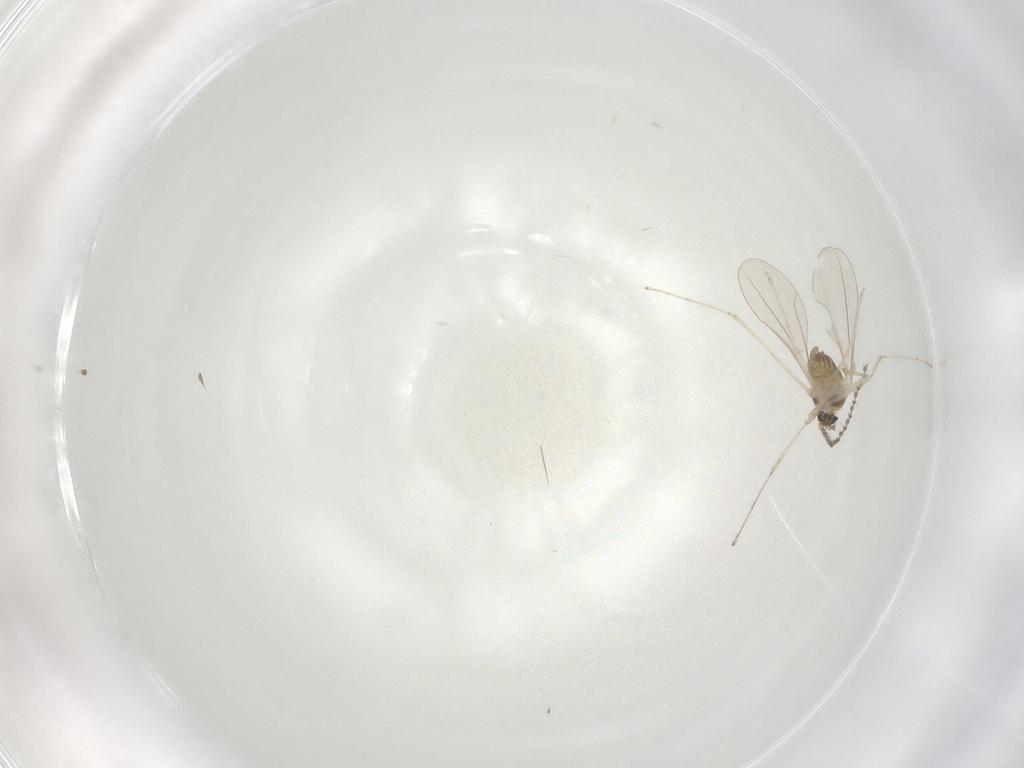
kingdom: Animalia
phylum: Arthropoda
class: Insecta
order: Diptera
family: Cecidomyiidae
